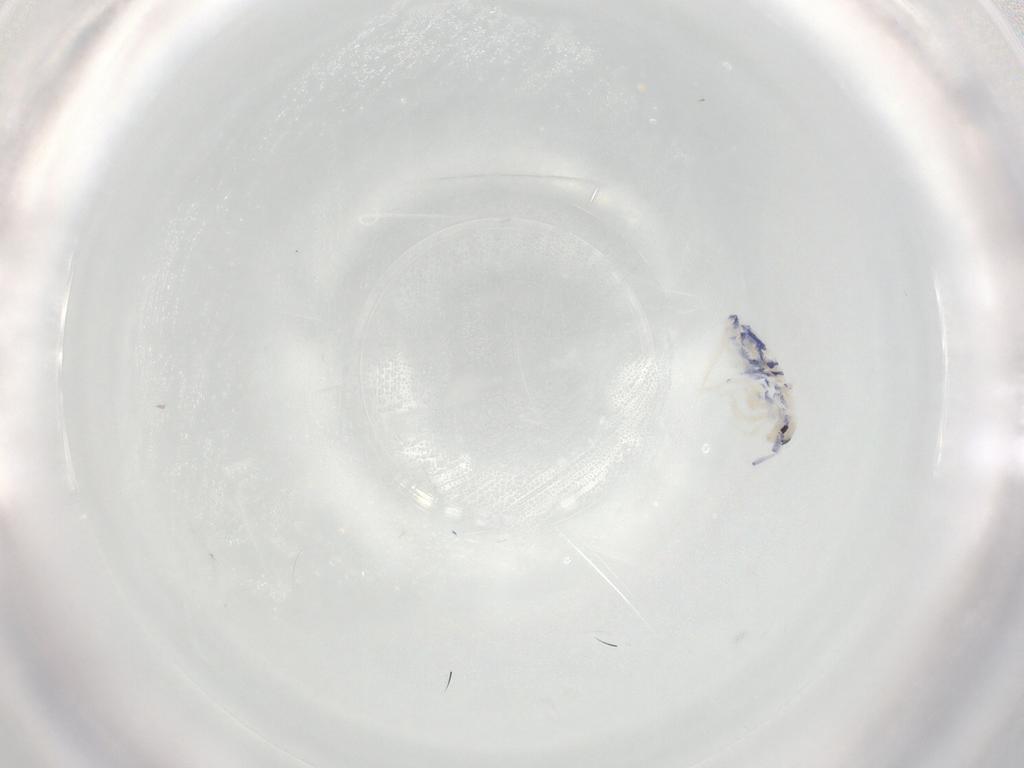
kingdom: Animalia
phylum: Arthropoda
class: Collembola
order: Entomobryomorpha
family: Entomobryidae
